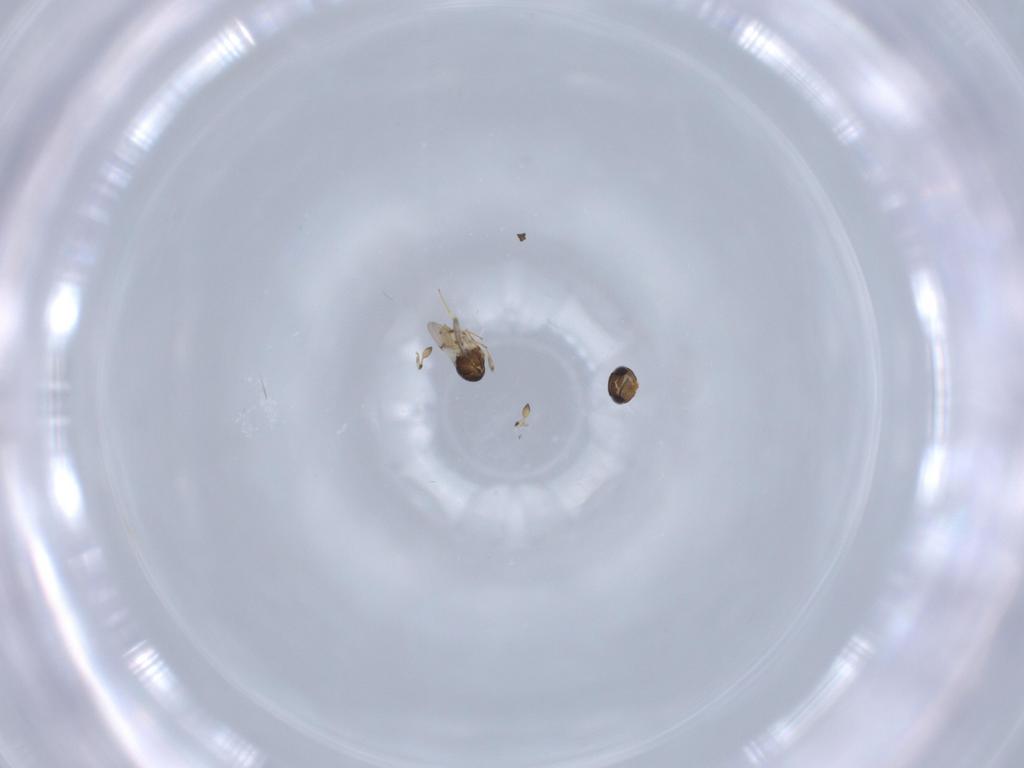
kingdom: Animalia
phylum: Arthropoda
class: Insecta
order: Hymenoptera
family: Scelionidae
